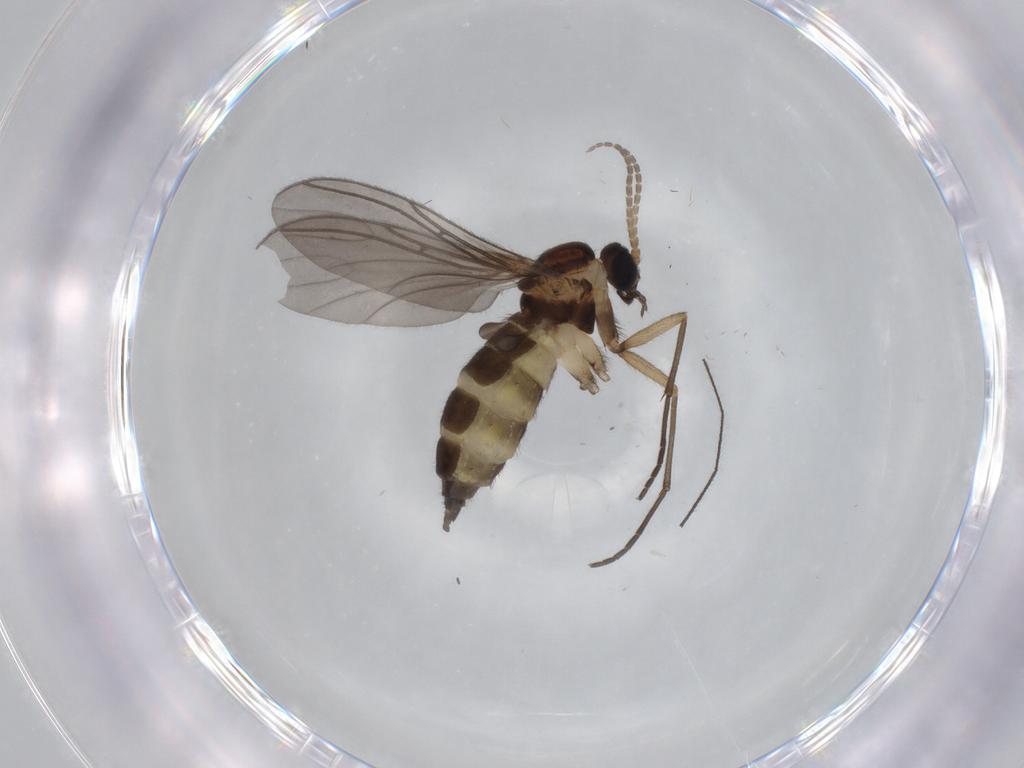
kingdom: Animalia
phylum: Arthropoda
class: Insecta
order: Diptera
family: Sciaridae
